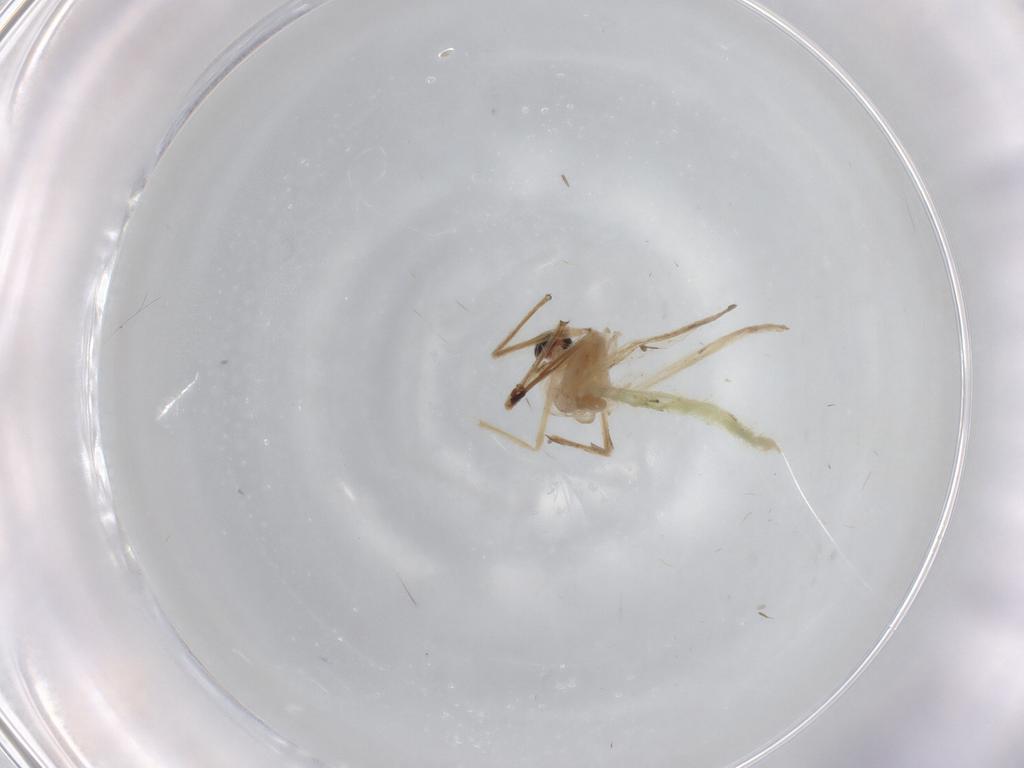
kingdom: Animalia
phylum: Arthropoda
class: Insecta
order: Diptera
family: Chironomidae
